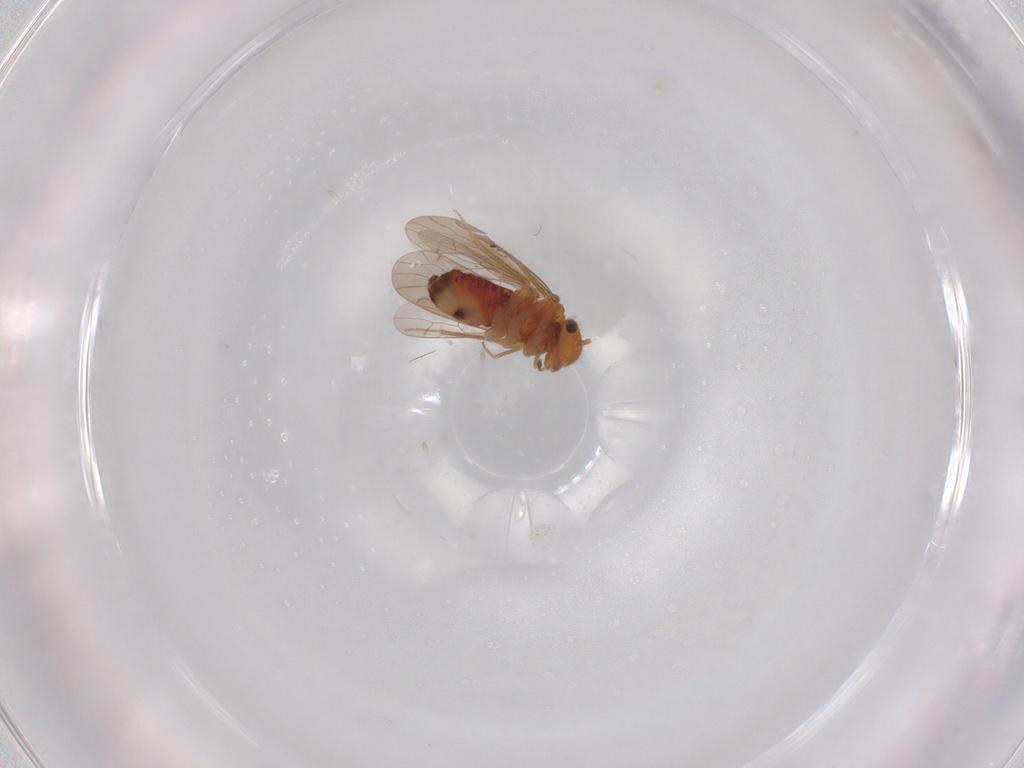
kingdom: Animalia
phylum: Arthropoda
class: Insecta
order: Psocodea
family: Ectopsocidae
